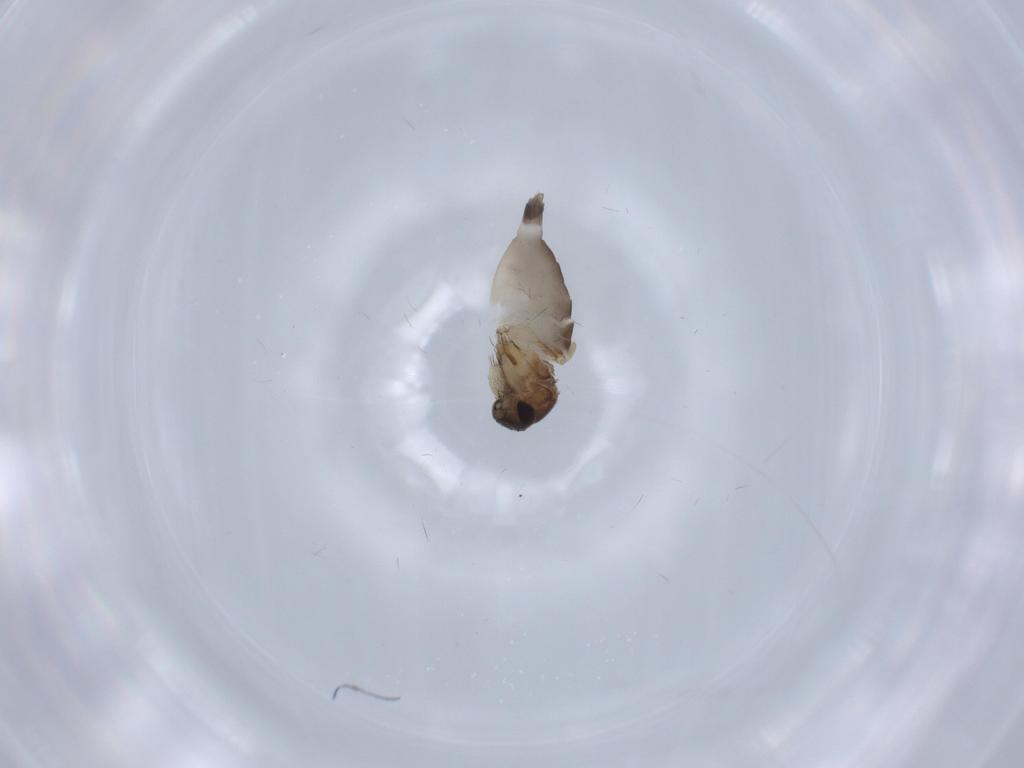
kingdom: Animalia
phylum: Arthropoda
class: Insecta
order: Diptera
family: Phoridae
